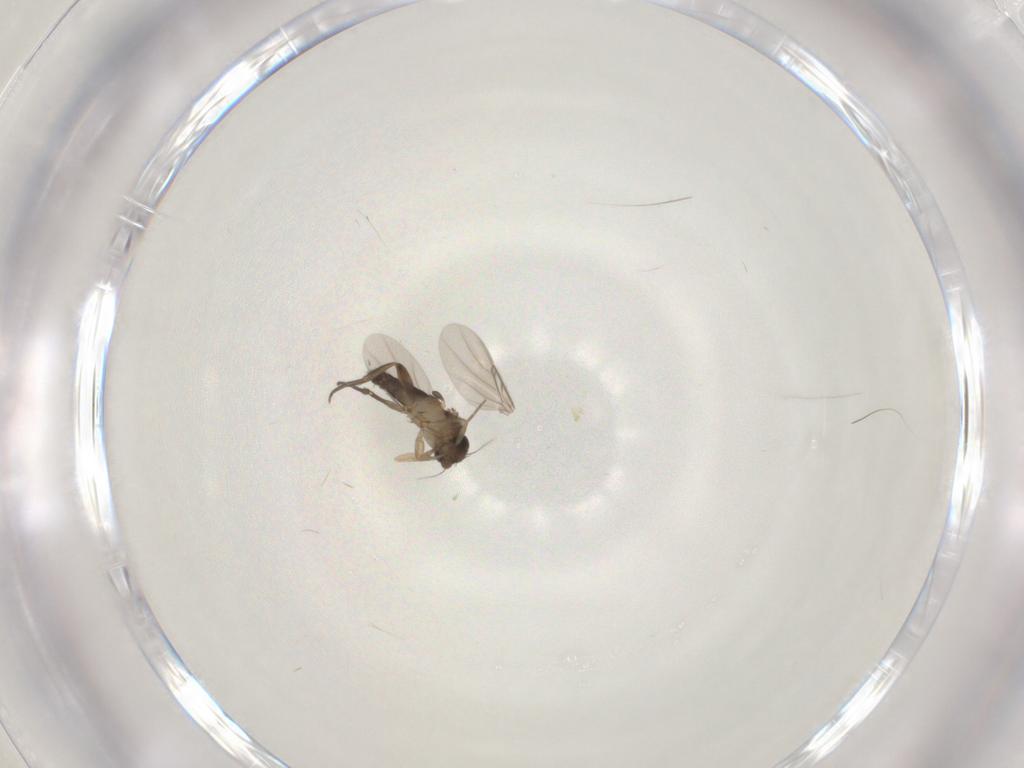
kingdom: Animalia
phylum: Arthropoda
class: Insecta
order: Diptera
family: Phoridae
